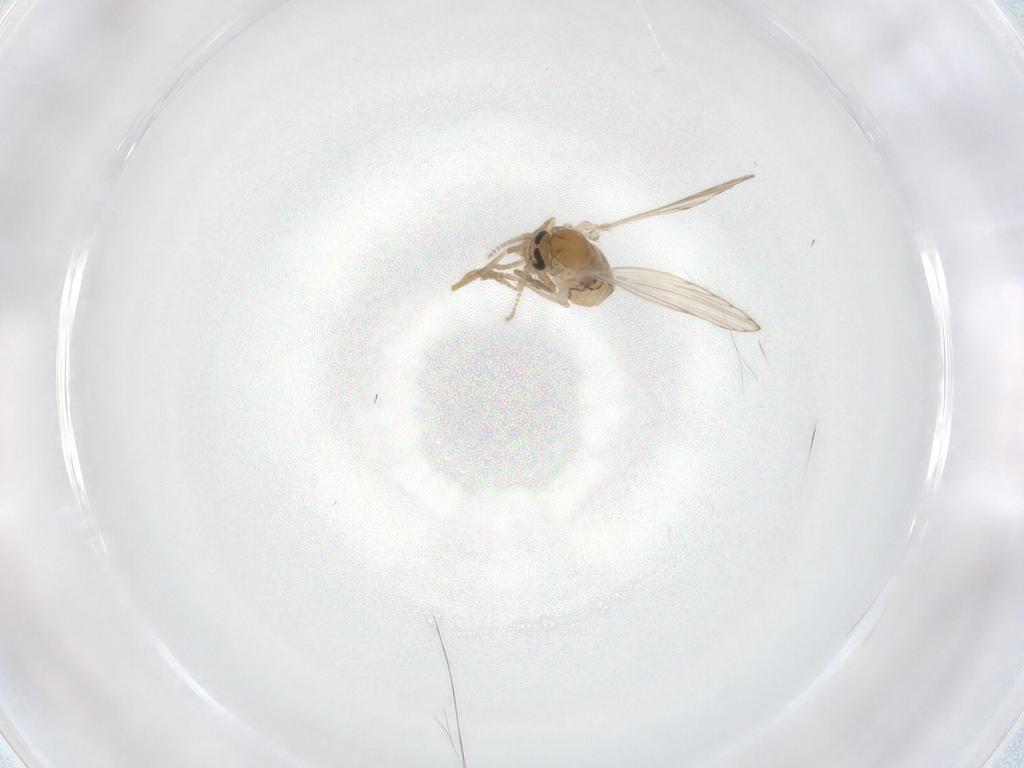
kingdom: Animalia
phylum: Arthropoda
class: Insecta
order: Diptera
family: Psychodidae
